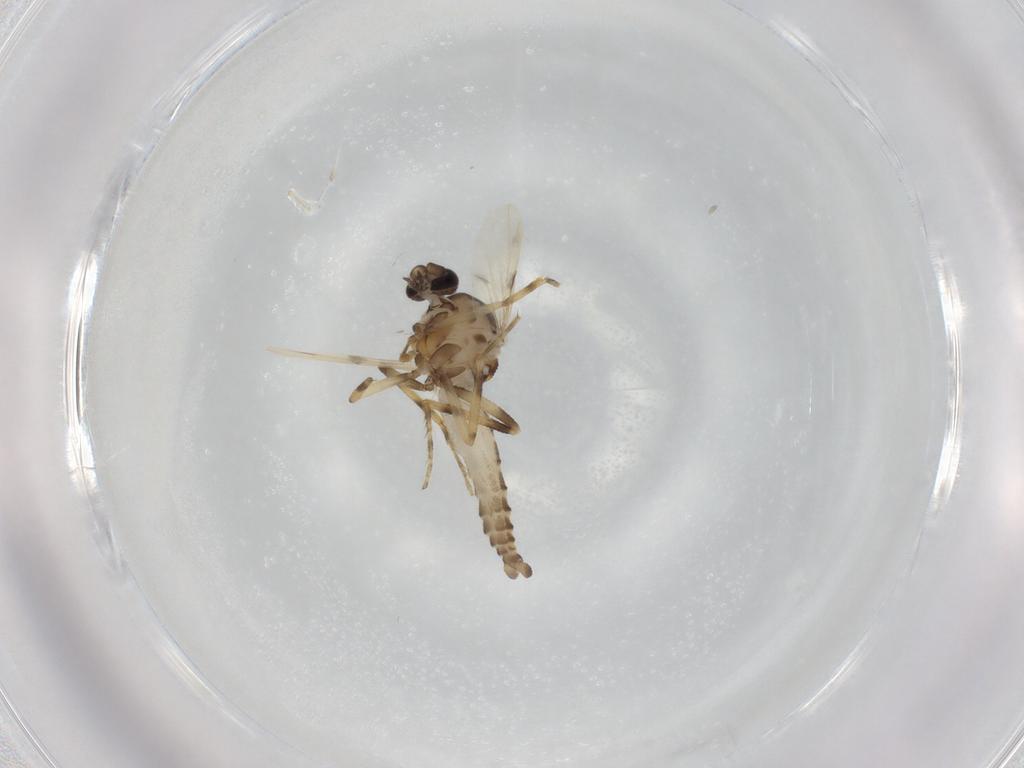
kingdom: Animalia
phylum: Arthropoda
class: Insecta
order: Diptera
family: Ceratopogonidae
